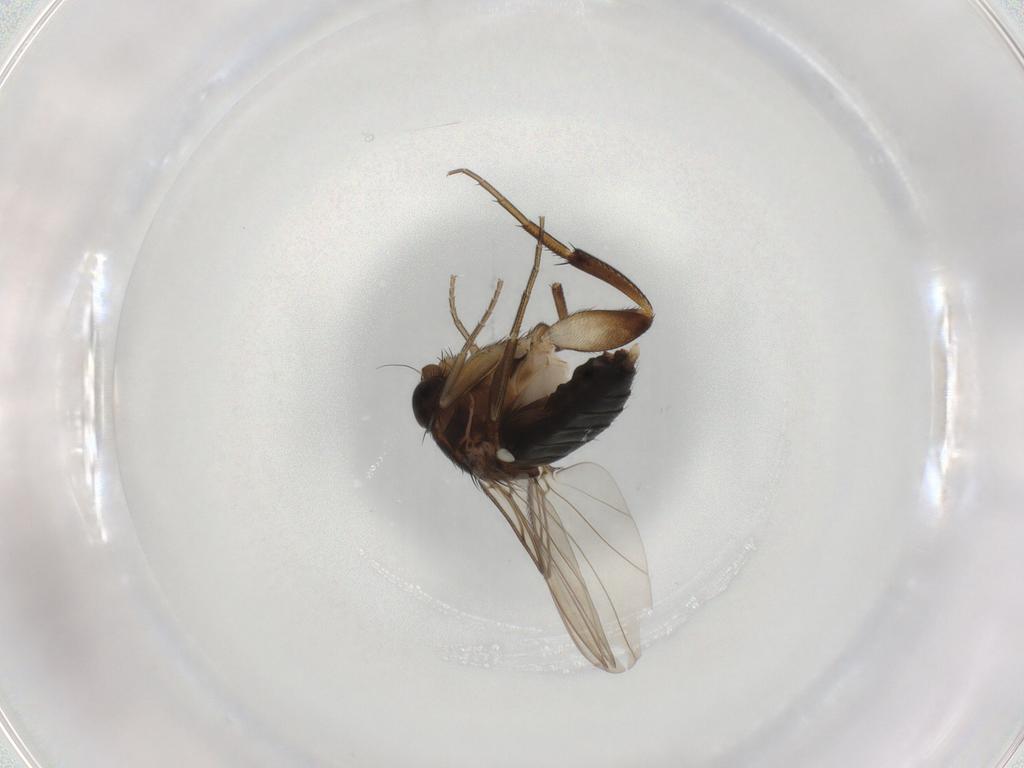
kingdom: Animalia
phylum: Arthropoda
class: Insecta
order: Diptera
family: Phoridae
